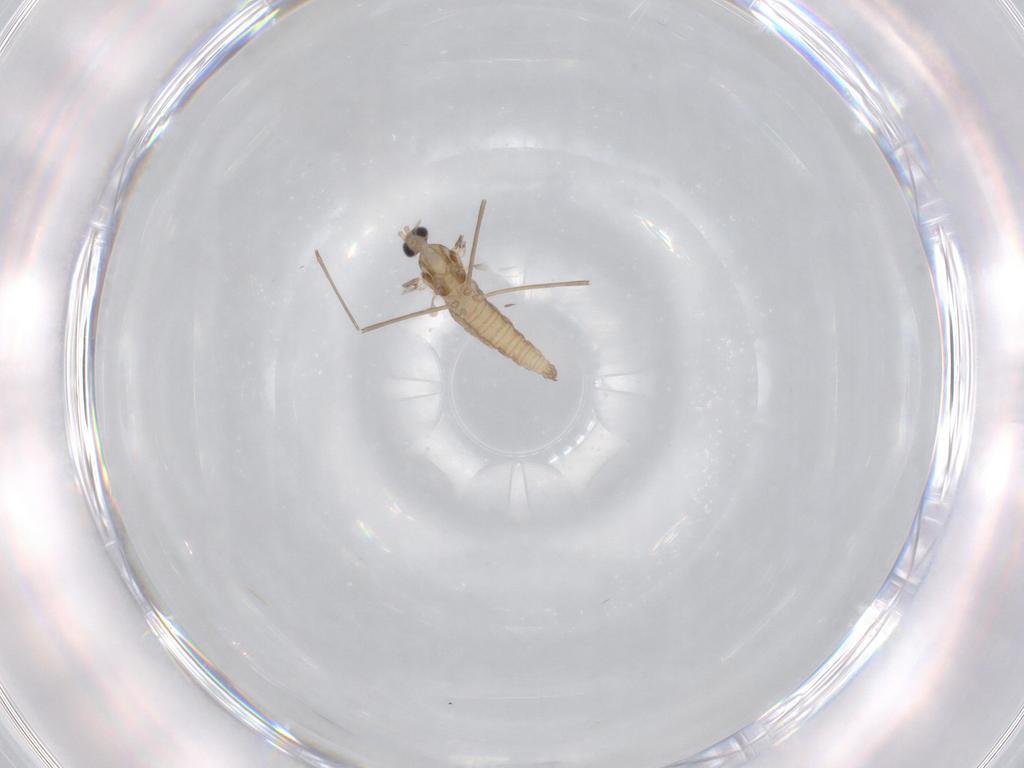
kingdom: Animalia
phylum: Arthropoda
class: Insecta
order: Diptera
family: Cecidomyiidae
